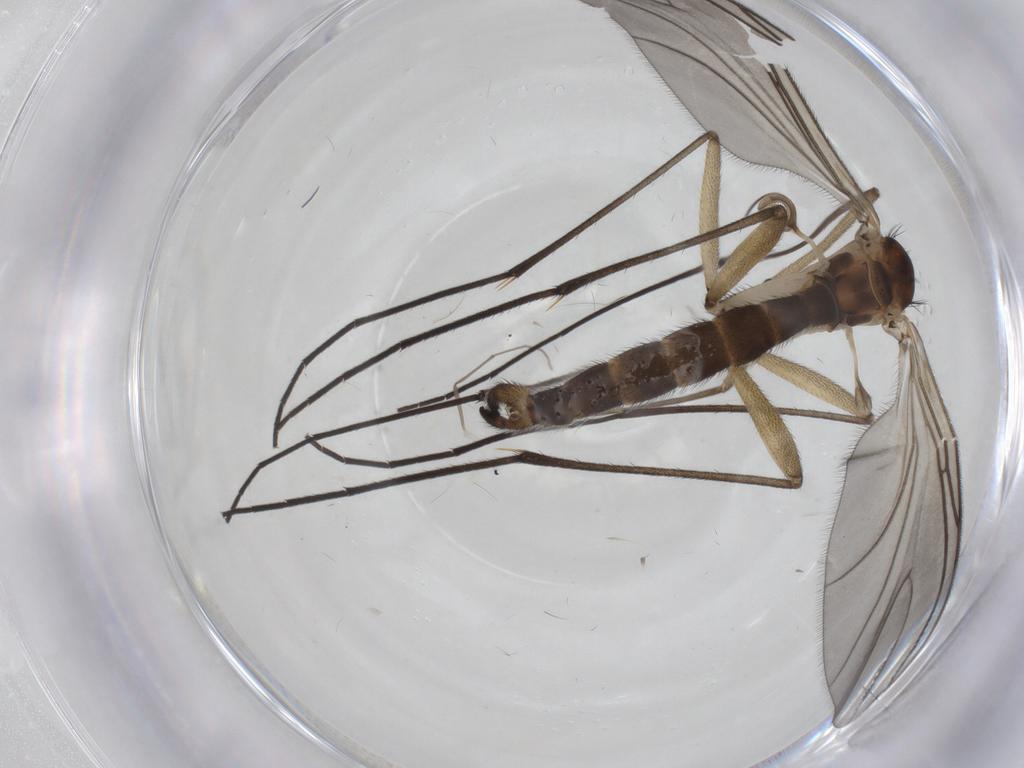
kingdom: Animalia
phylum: Arthropoda
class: Insecta
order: Diptera
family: Sciaridae
